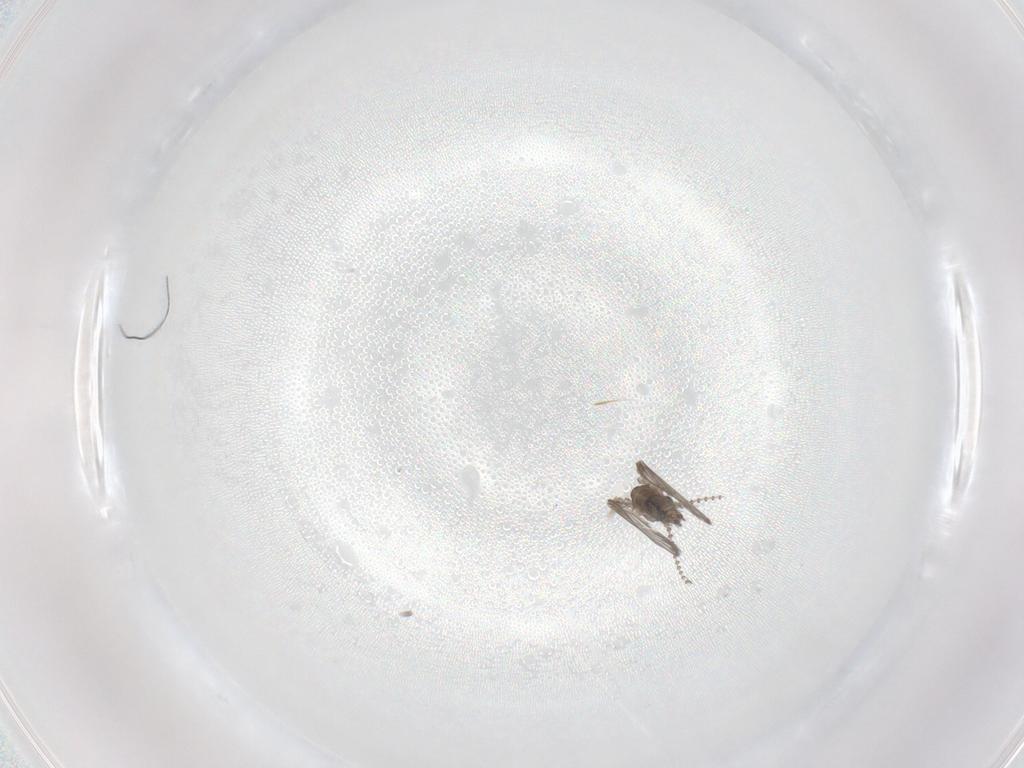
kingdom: Animalia
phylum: Arthropoda
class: Insecta
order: Diptera
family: Psychodidae
